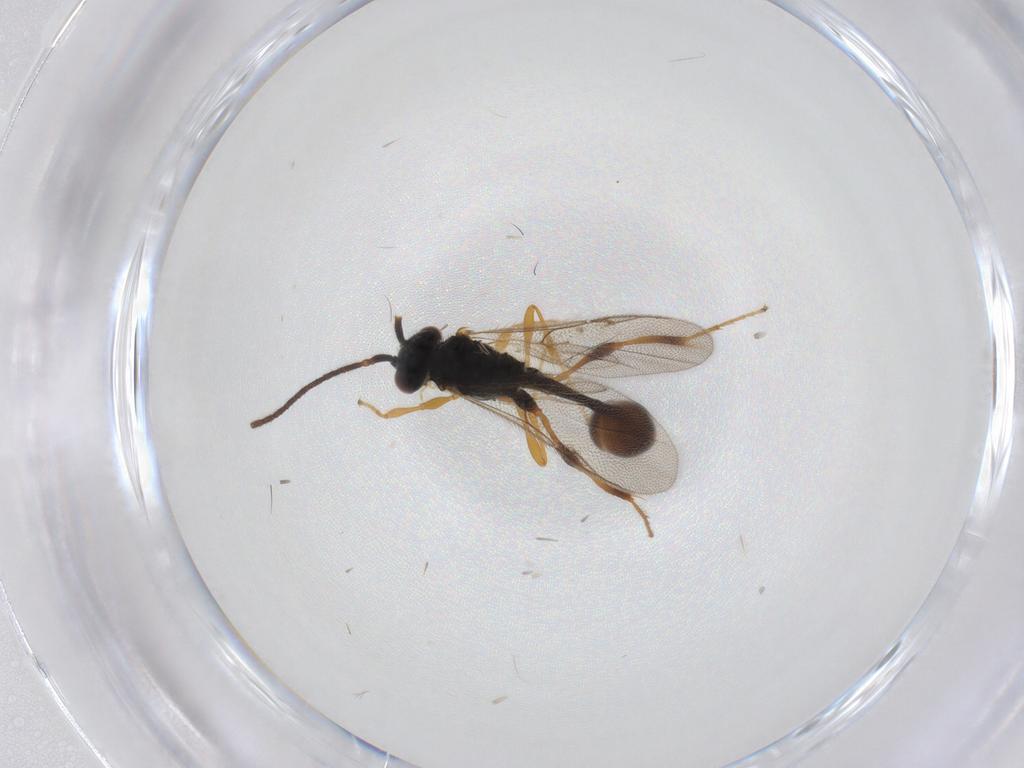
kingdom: Animalia
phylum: Arthropoda
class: Insecta
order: Hymenoptera
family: Diapriidae
